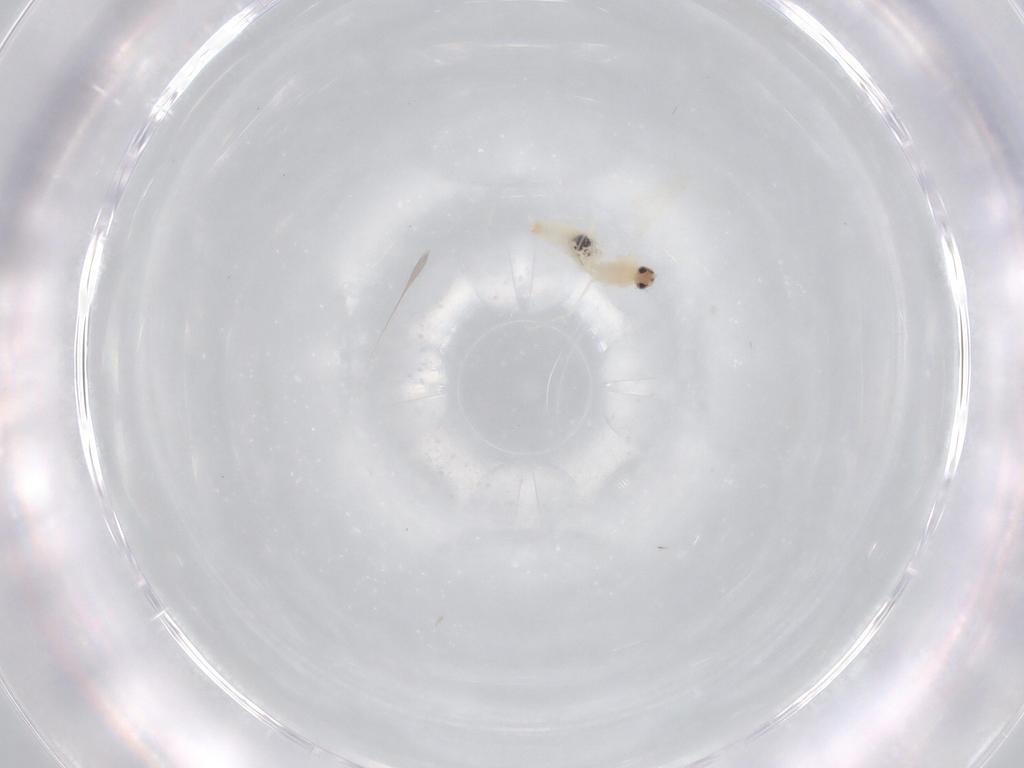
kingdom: Animalia
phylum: Arthropoda
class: Insecta
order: Diptera
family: Cecidomyiidae
